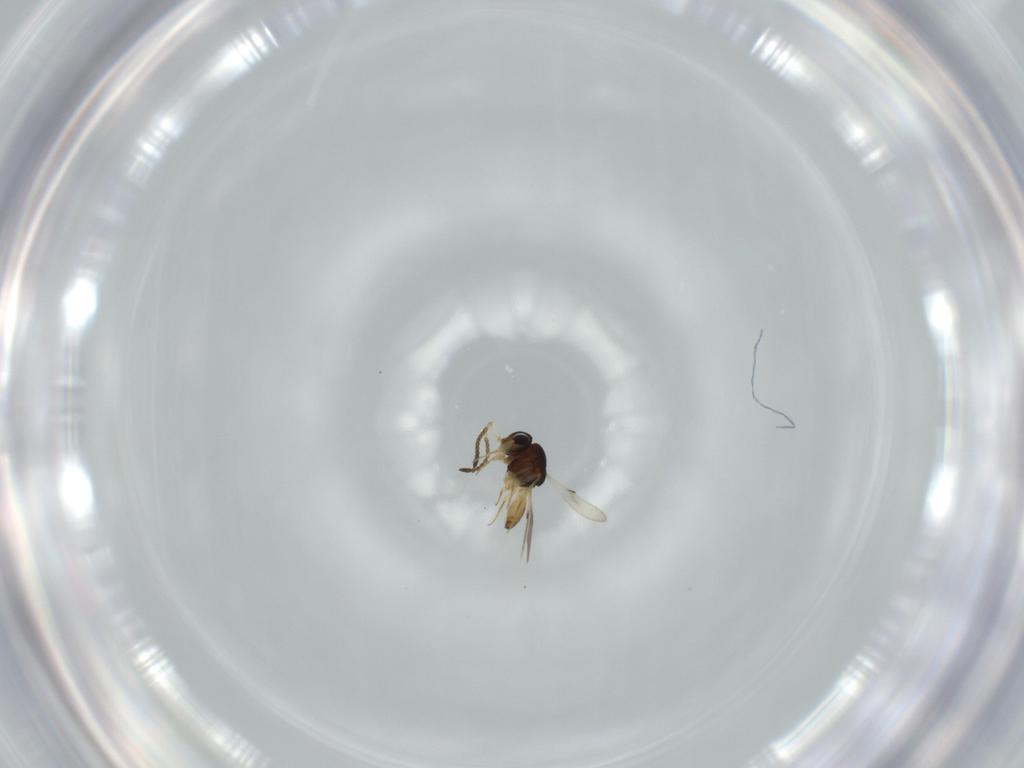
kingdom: Animalia
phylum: Arthropoda
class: Insecta
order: Hymenoptera
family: Scelionidae
